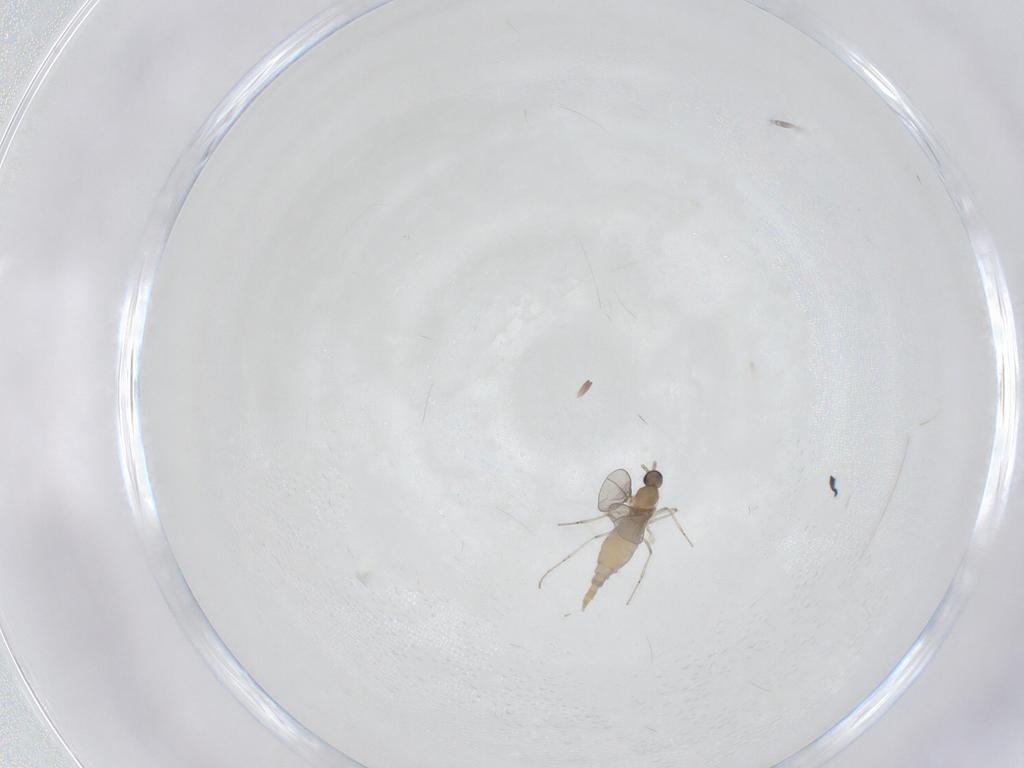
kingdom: Animalia
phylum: Arthropoda
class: Insecta
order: Diptera
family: Cecidomyiidae
